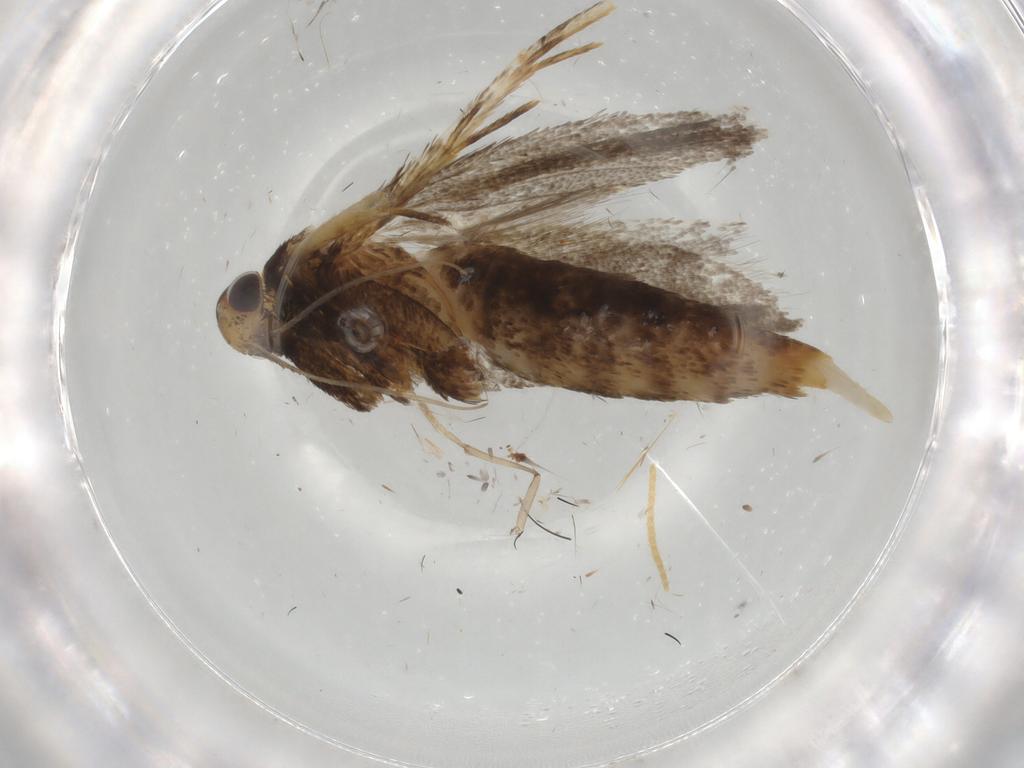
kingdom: Animalia
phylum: Arthropoda
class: Insecta
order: Lepidoptera
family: Lecithoceridae
